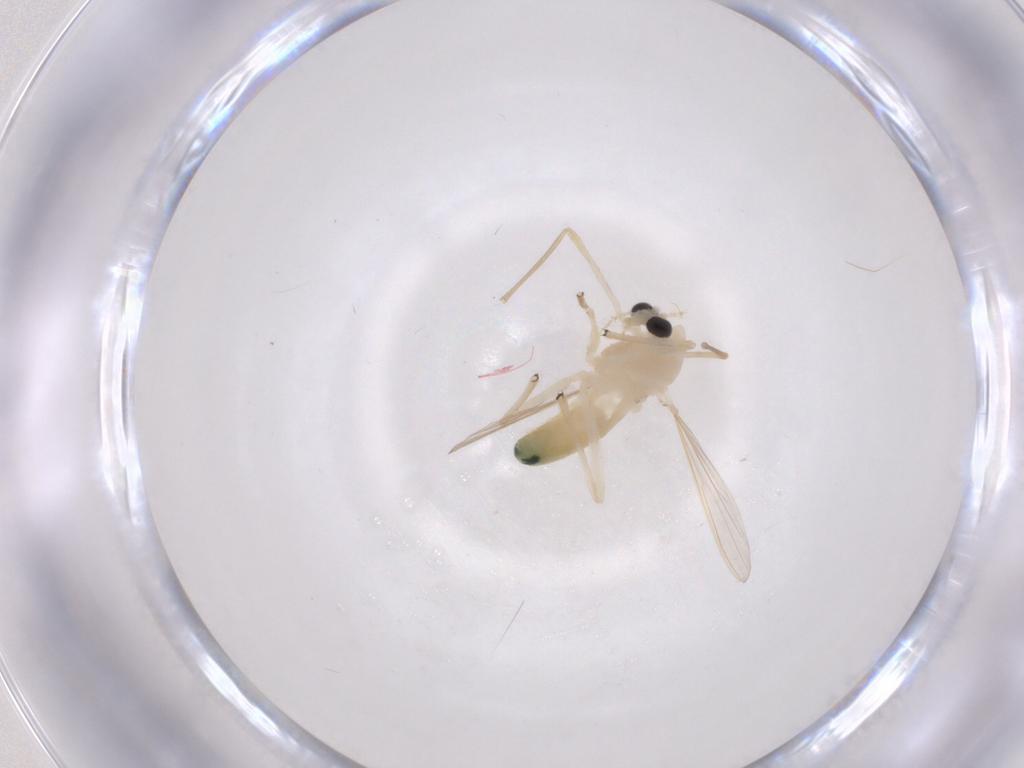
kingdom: Animalia
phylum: Arthropoda
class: Insecta
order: Diptera
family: Chironomidae
